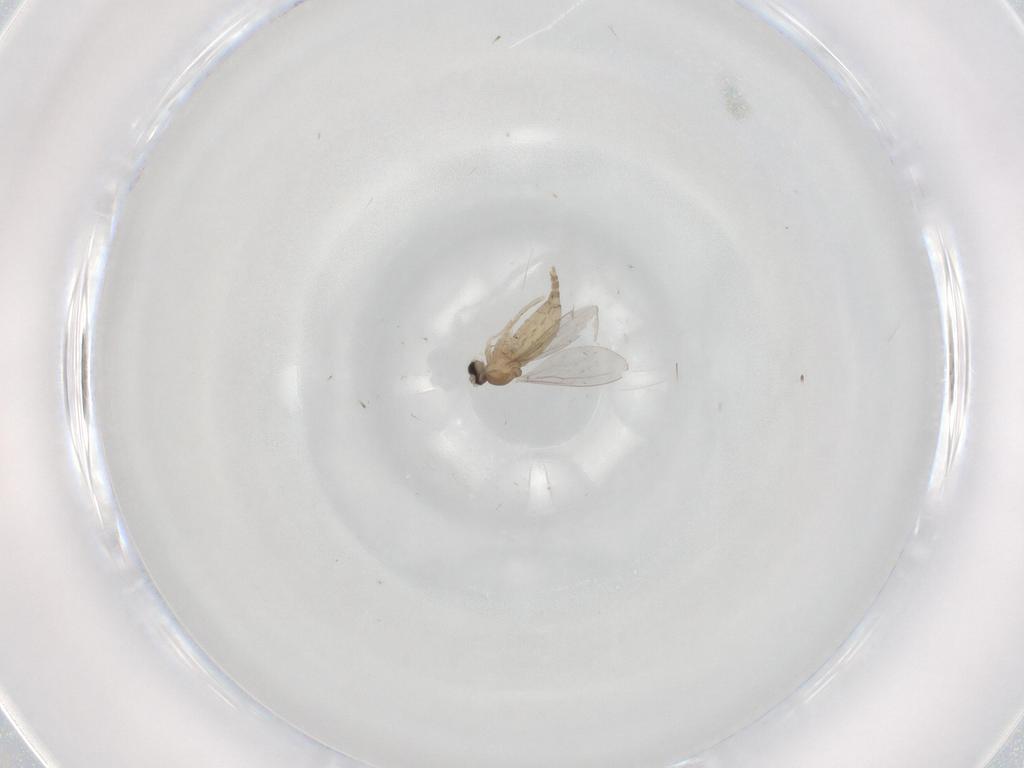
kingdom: Animalia
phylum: Arthropoda
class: Insecta
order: Diptera
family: Cecidomyiidae
